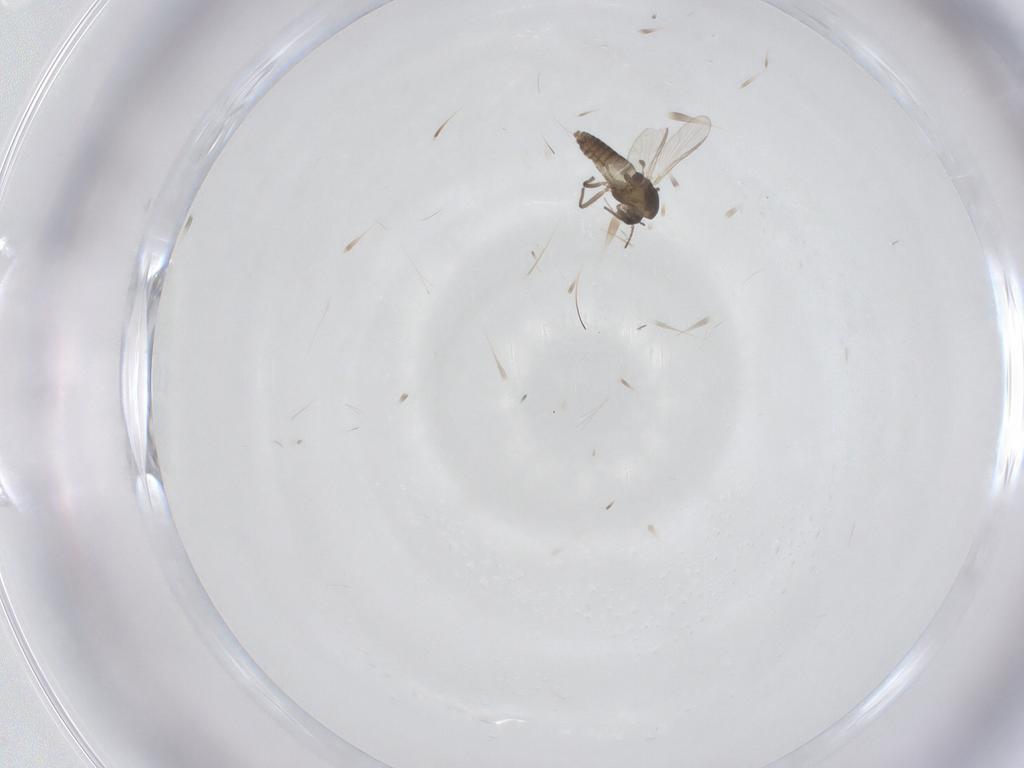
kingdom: Animalia
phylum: Arthropoda
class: Insecta
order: Diptera
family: Chironomidae
